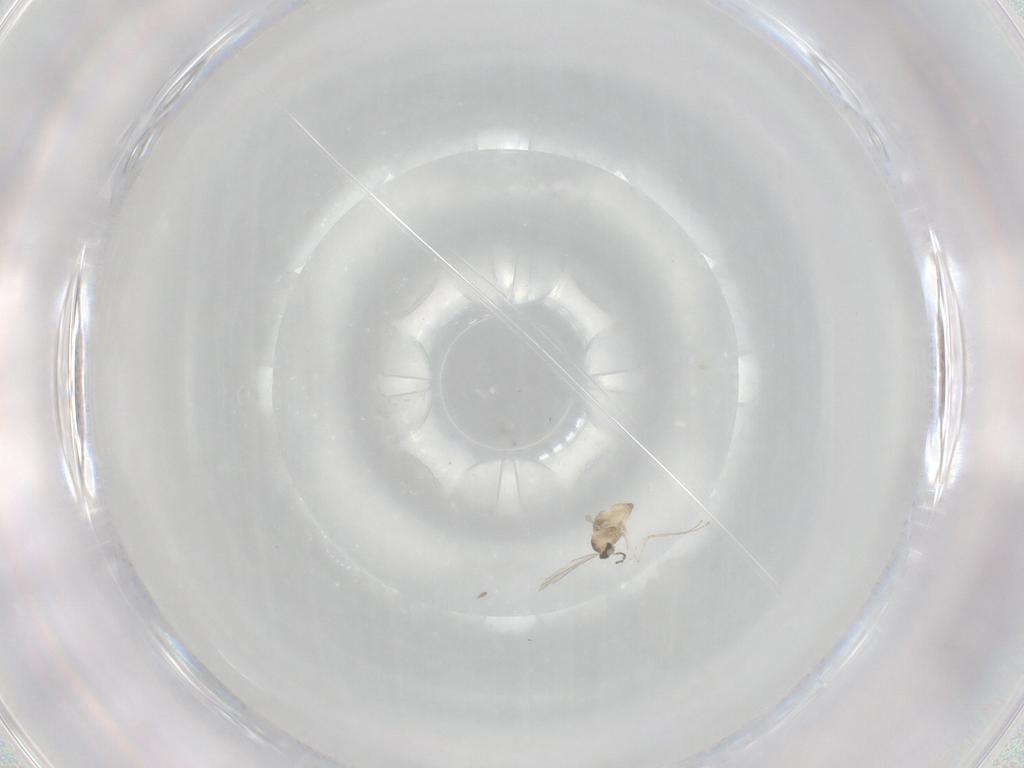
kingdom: Animalia
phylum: Arthropoda
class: Insecta
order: Diptera
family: Cecidomyiidae
